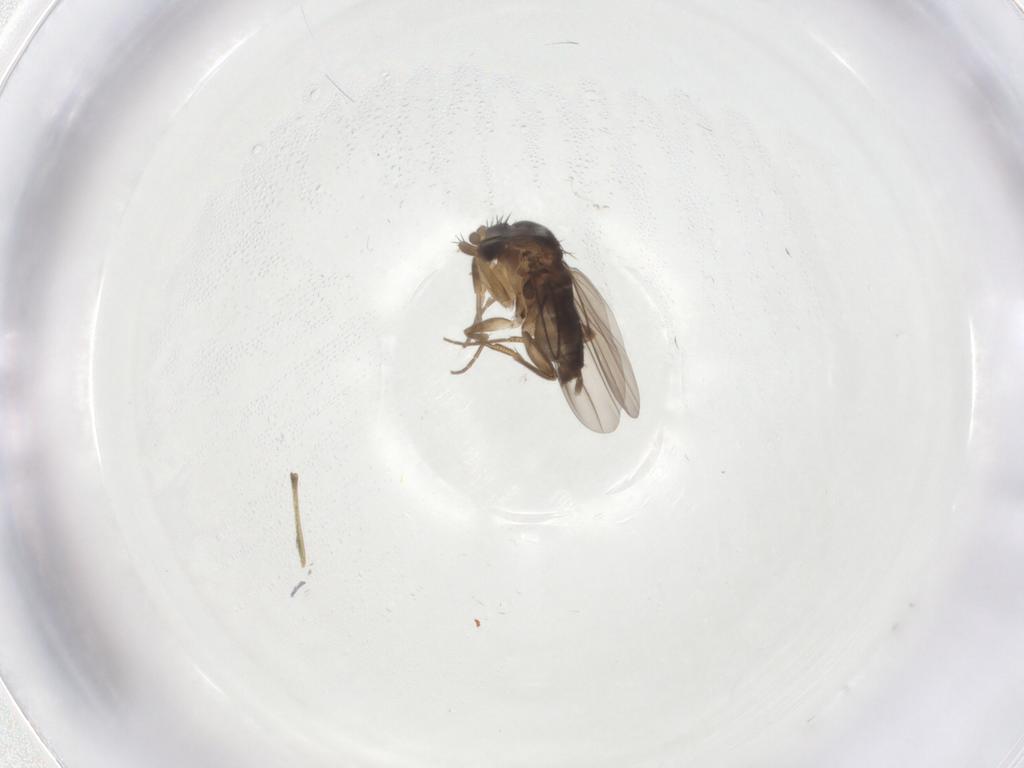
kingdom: Animalia
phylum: Arthropoda
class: Insecta
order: Diptera
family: Phoridae
